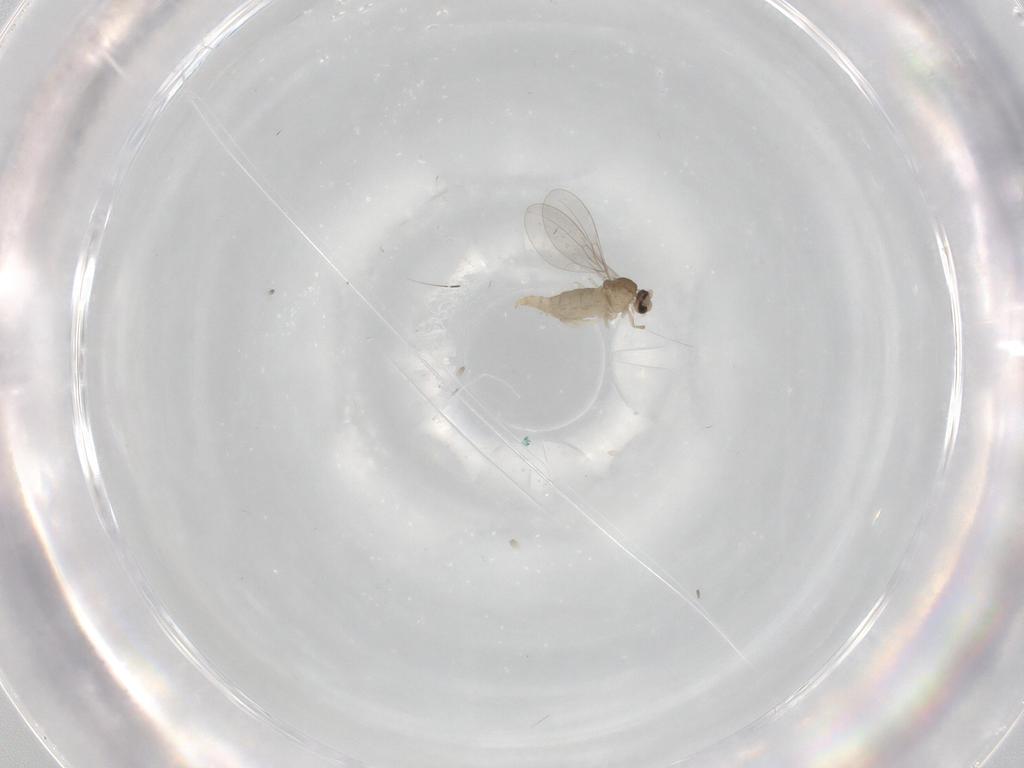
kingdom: Animalia
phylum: Arthropoda
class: Insecta
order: Diptera
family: Cecidomyiidae
